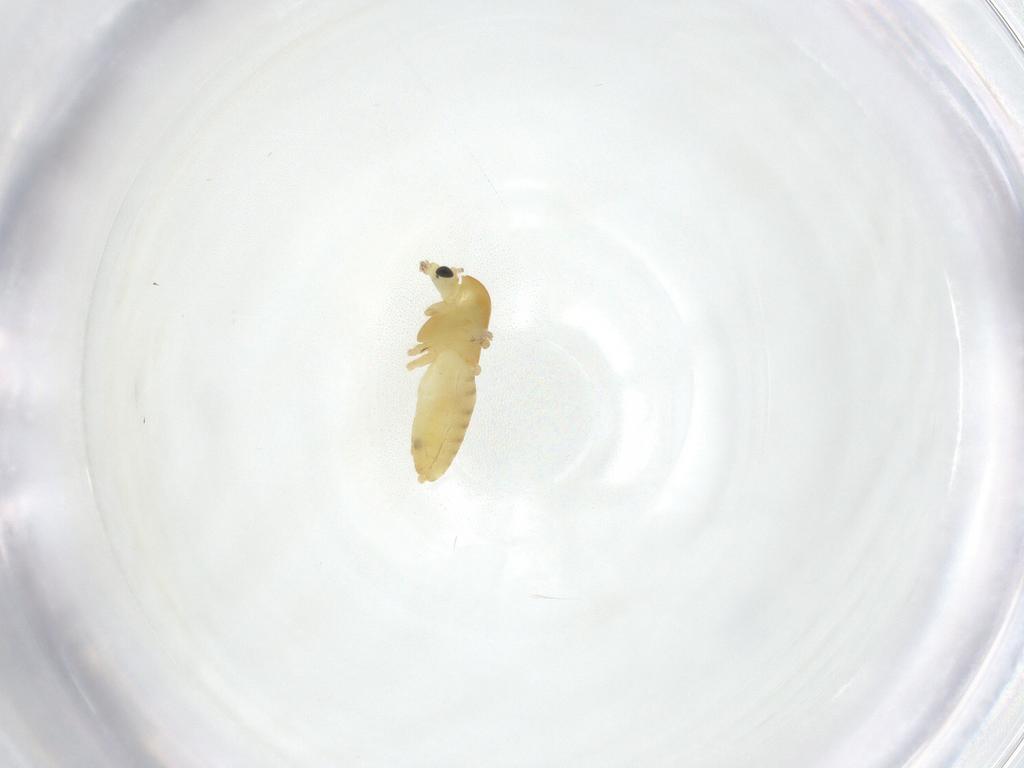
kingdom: Animalia
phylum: Arthropoda
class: Insecta
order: Diptera
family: Chironomidae
